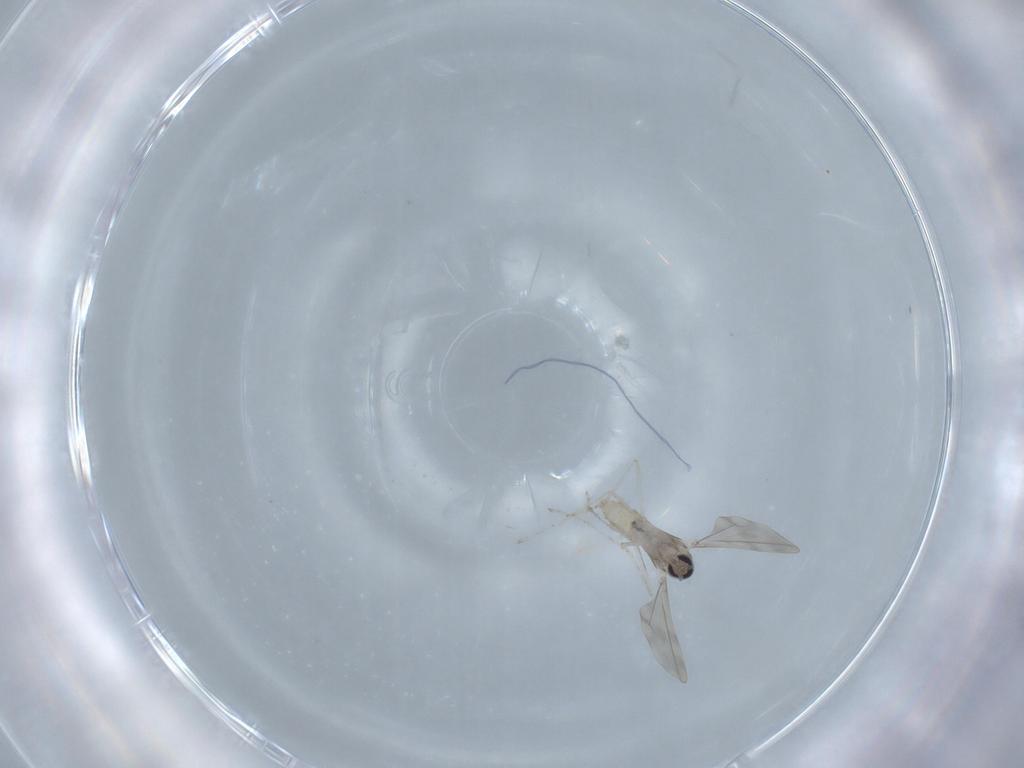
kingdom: Animalia
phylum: Arthropoda
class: Insecta
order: Diptera
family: Cecidomyiidae
